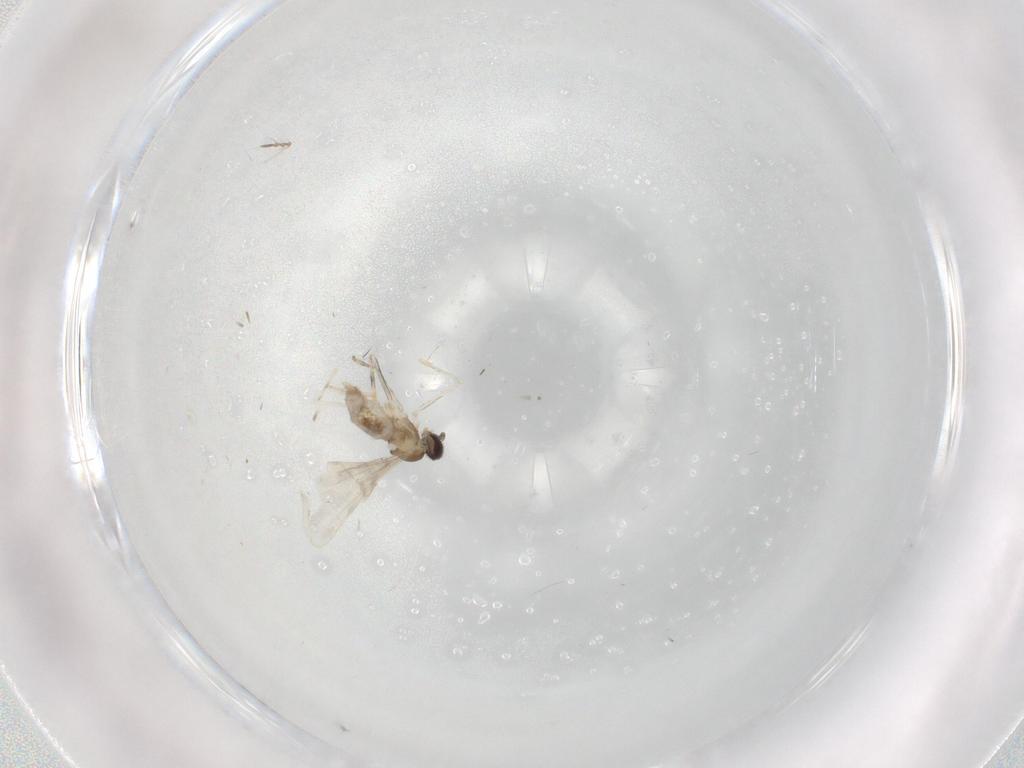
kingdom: Animalia
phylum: Arthropoda
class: Insecta
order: Diptera
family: Cecidomyiidae
